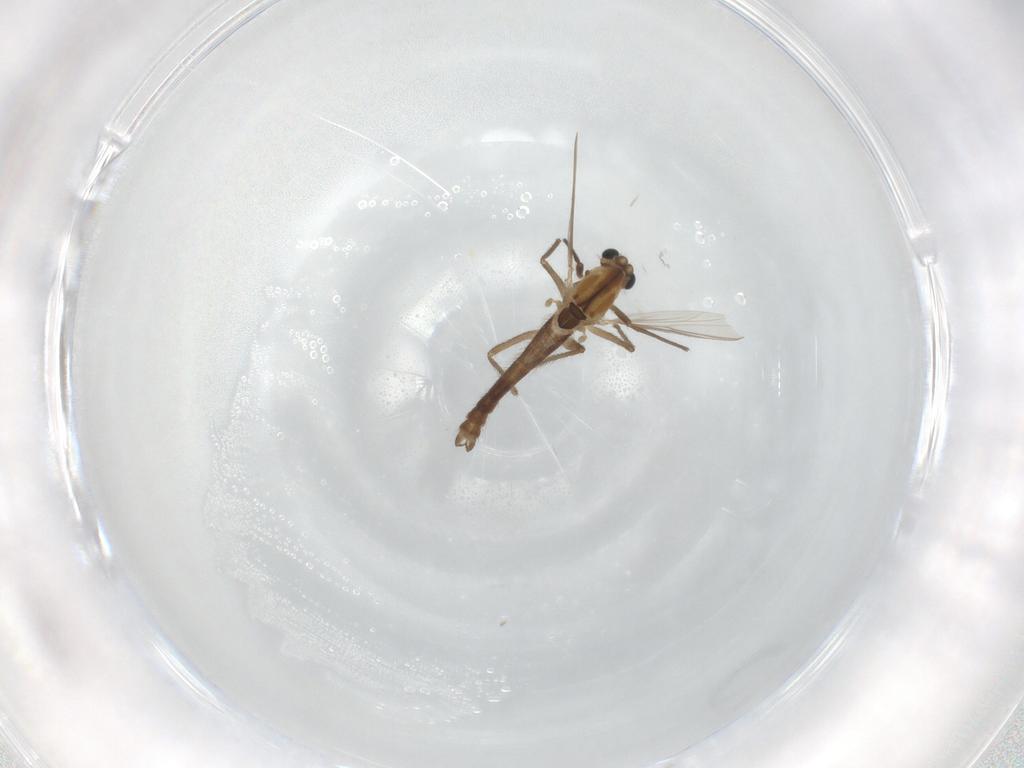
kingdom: Animalia
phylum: Arthropoda
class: Insecta
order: Diptera
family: Chironomidae
